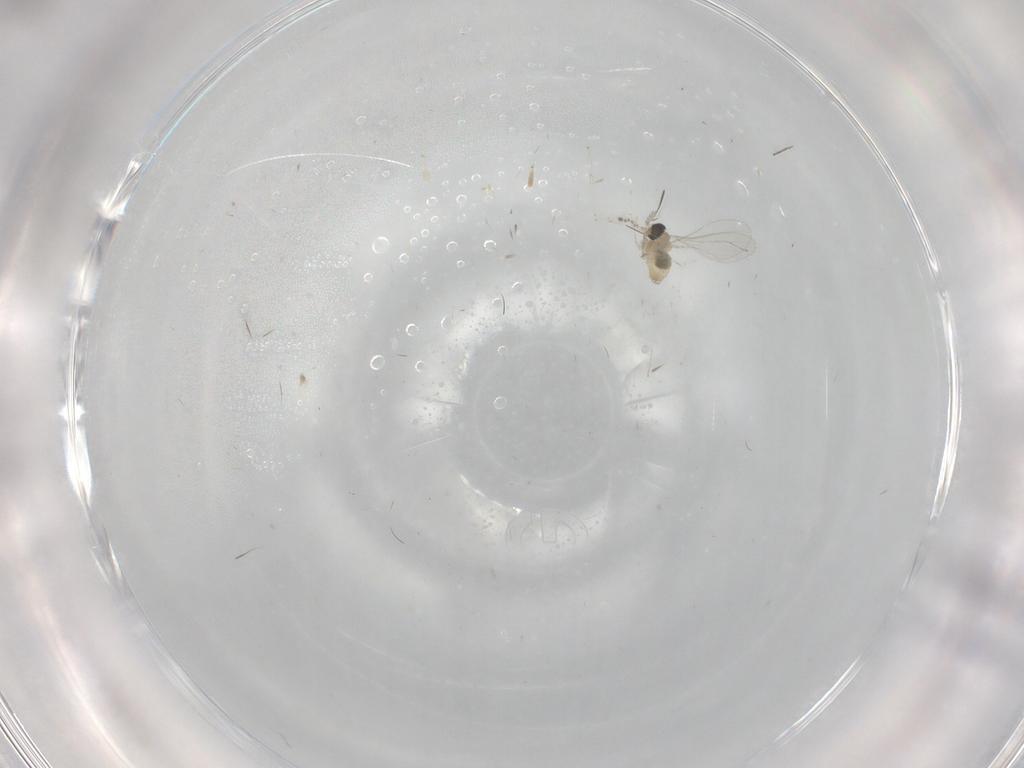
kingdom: Animalia
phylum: Arthropoda
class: Insecta
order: Diptera
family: Cecidomyiidae
